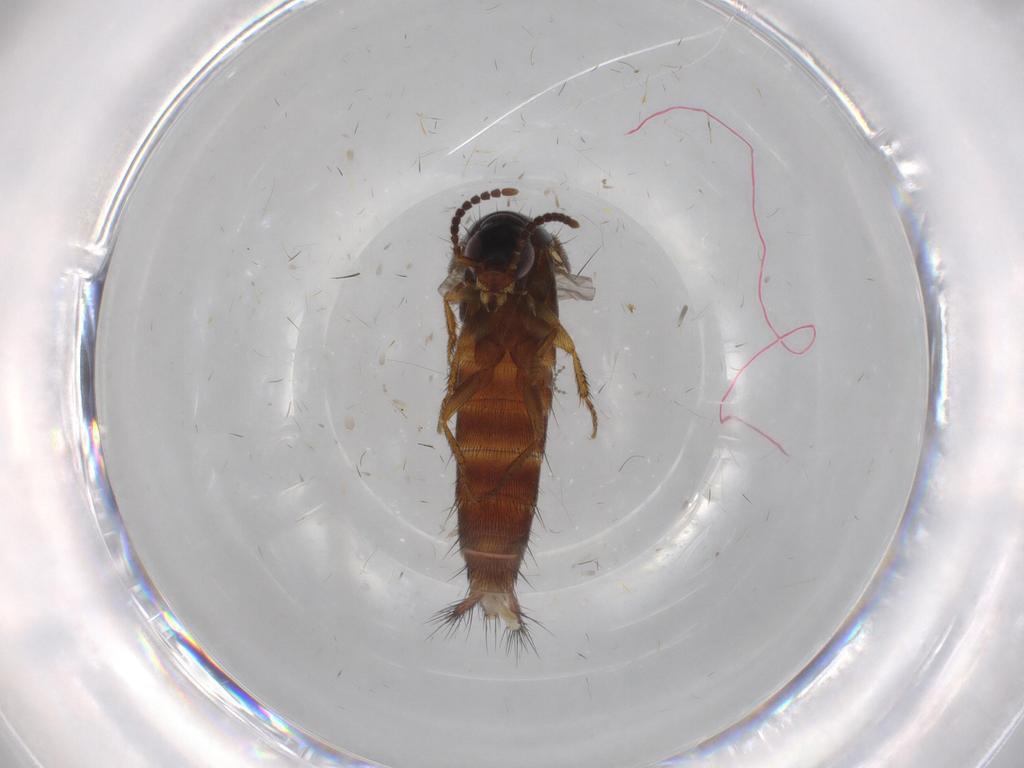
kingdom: Animalia
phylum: Arthropoda
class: Insecta
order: Coleoptera
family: Staphylinidae
